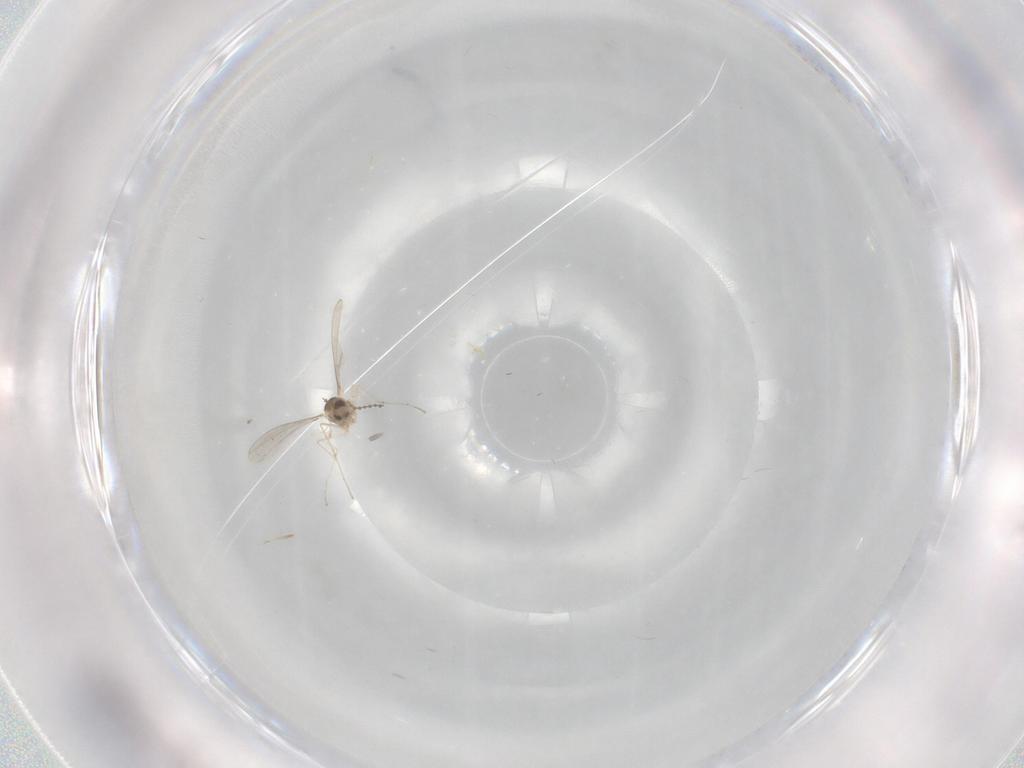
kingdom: Animalia
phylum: Arthropoda
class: Insecta
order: Diptera
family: Cecidomyiidae
